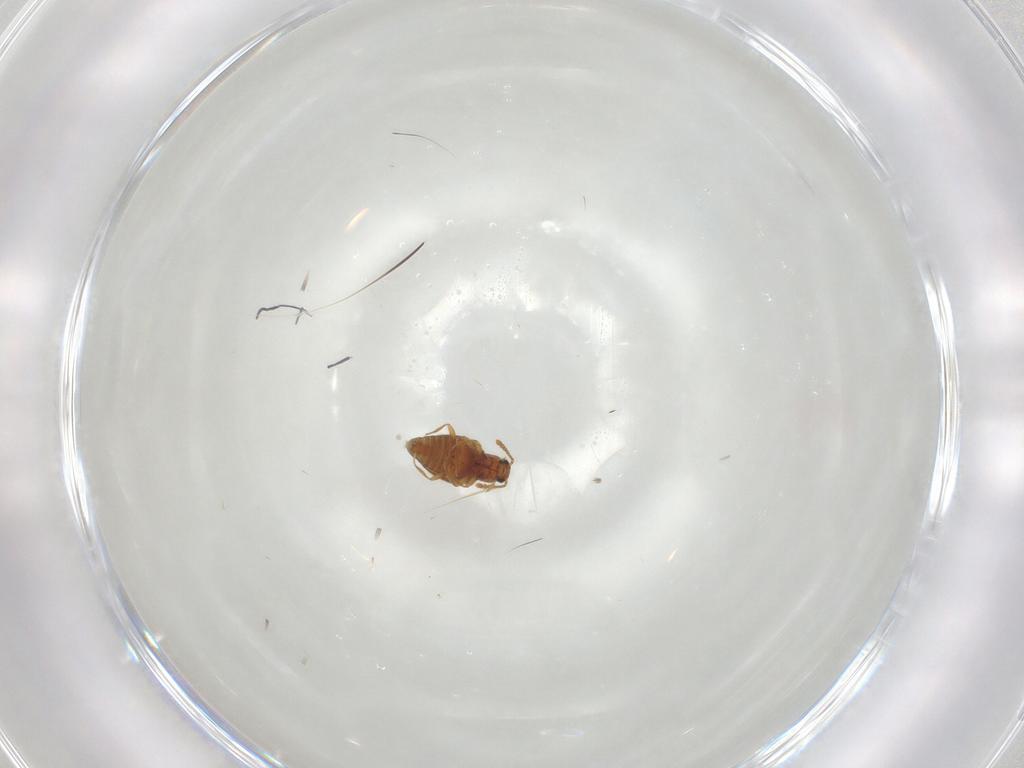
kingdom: Animalia
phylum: Arthropoda
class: Insecta
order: Coleoptera
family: Staphylinidae
